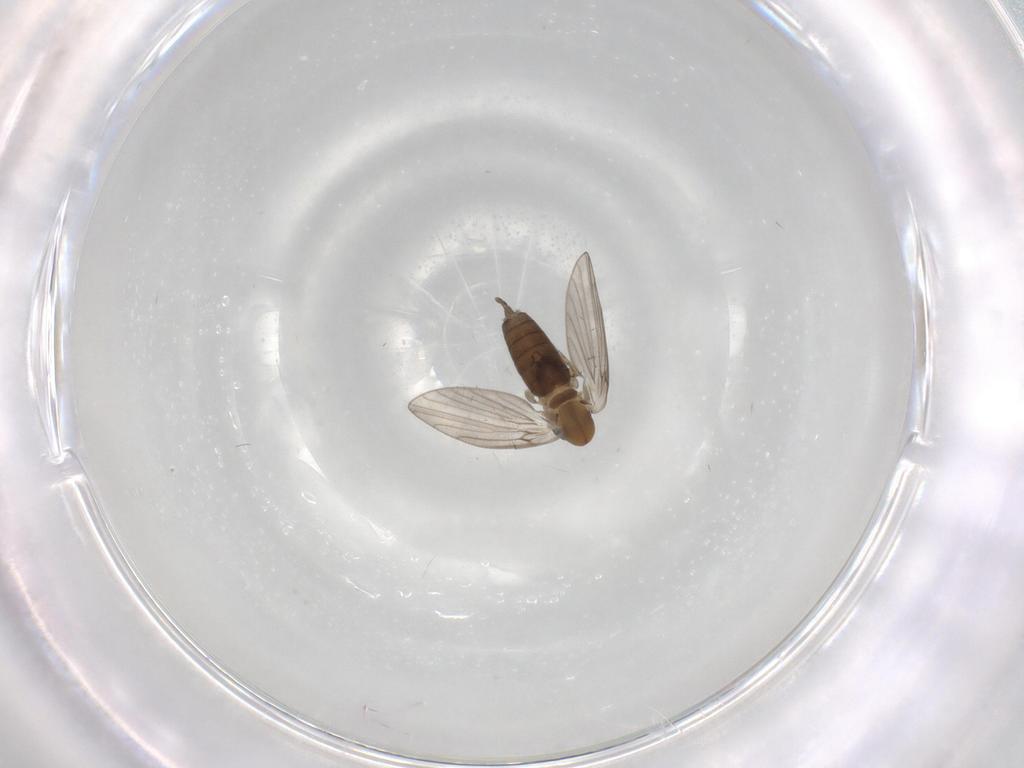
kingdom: Animalia
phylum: Arthropoda
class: Insecta
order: Diptera
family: Psychodidae
